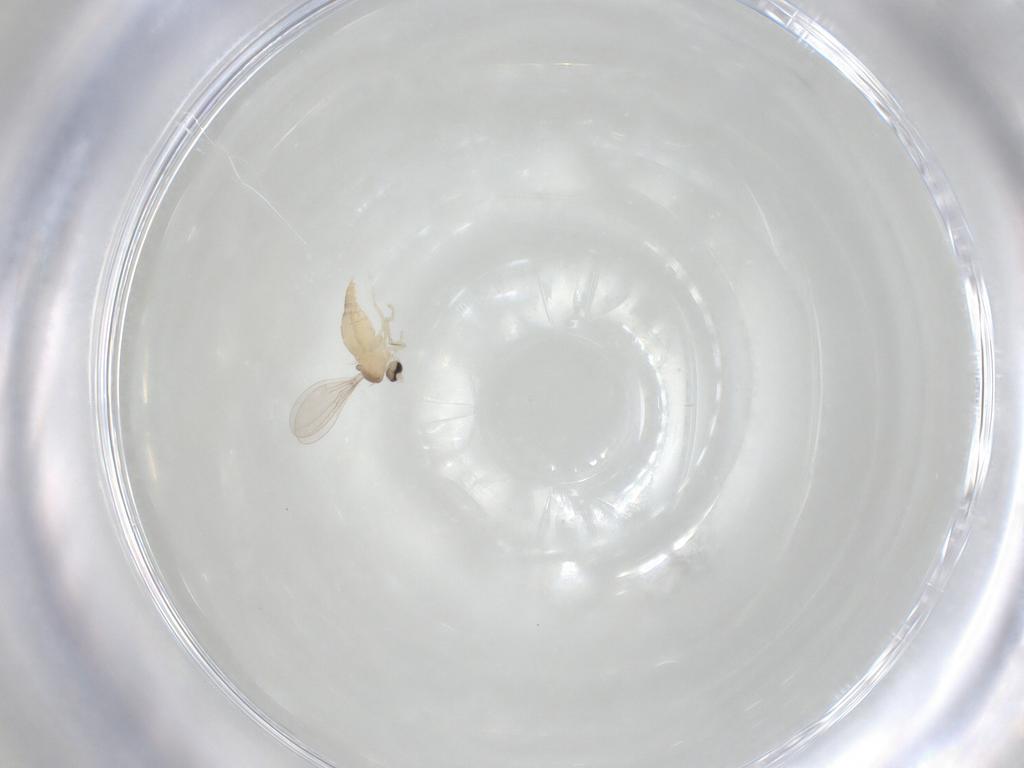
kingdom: Animalia
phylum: Arthropoda
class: Insecta
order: Diptera
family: Cecidomyiidae
